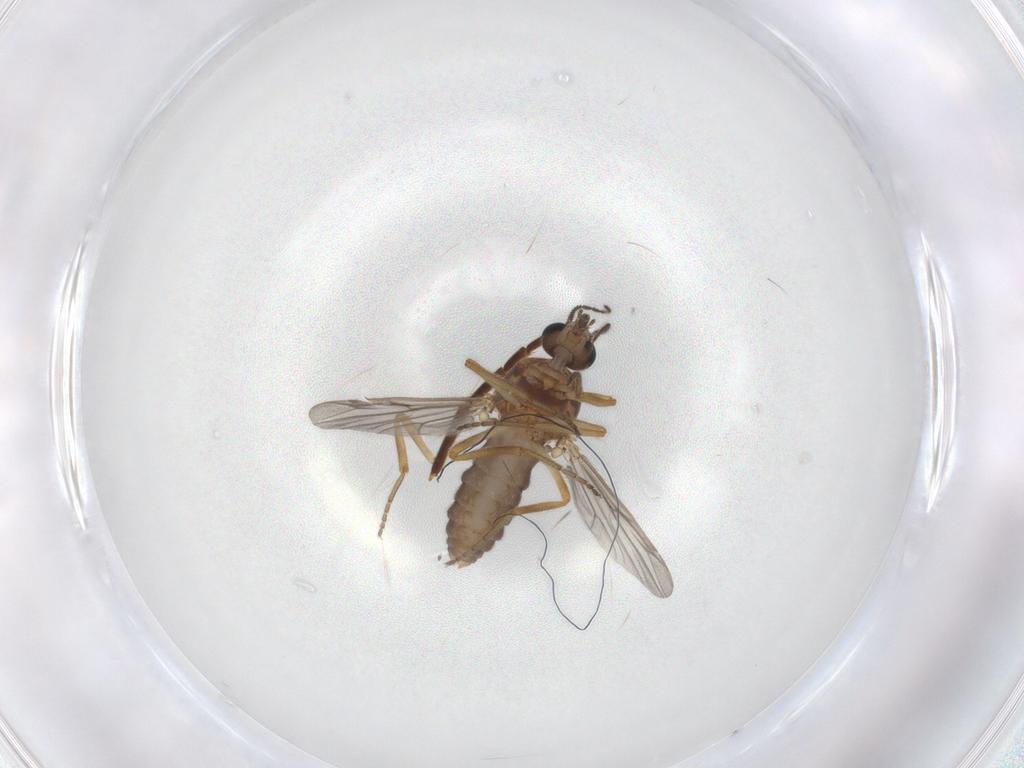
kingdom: Animalia
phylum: Arthropoda
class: Insecta
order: Diptera
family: Ceratopogonidae
